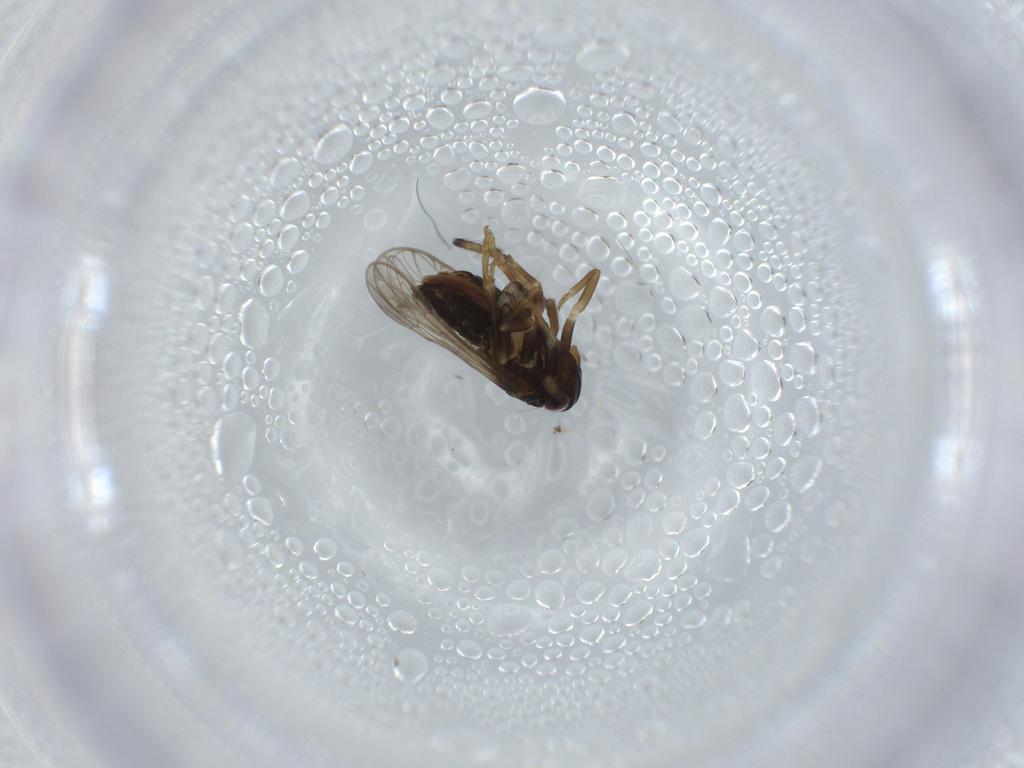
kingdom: Animalia
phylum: Arthropoda
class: Insecta
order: Hemiptera
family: Delphacidae
